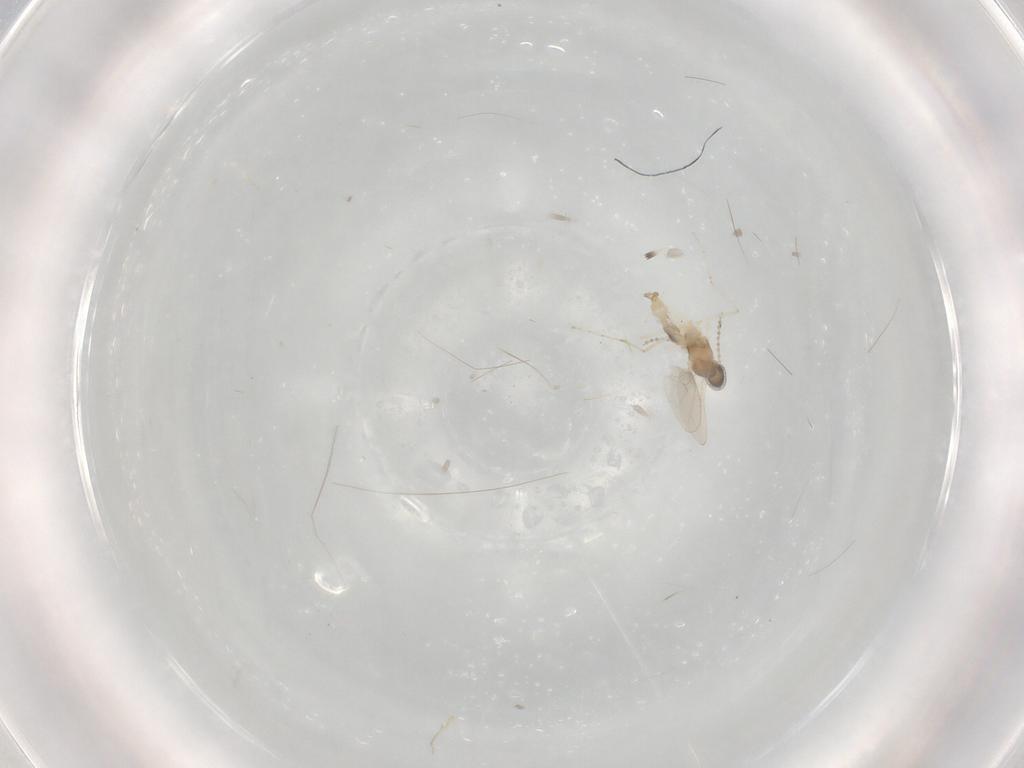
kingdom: Animalia
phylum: Arthropoda
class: Insecta
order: Diptera
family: Cecidomyiidae
